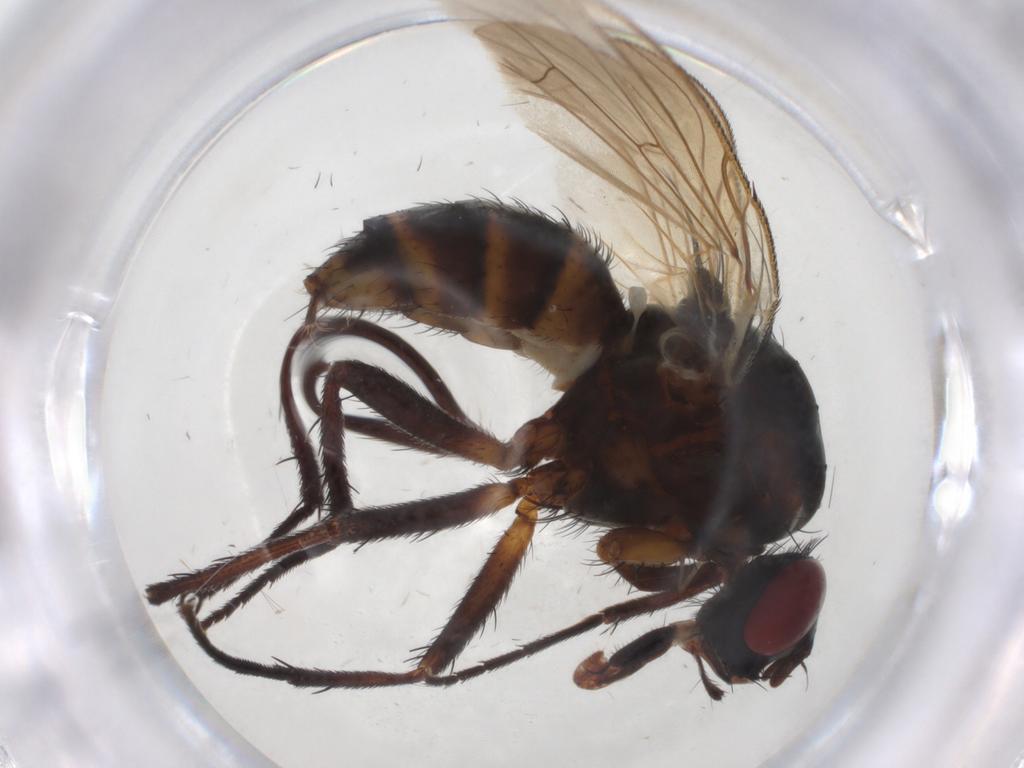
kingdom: Animalia
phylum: Arthropoda
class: Insecta
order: Diptera
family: Anthomyiidae
